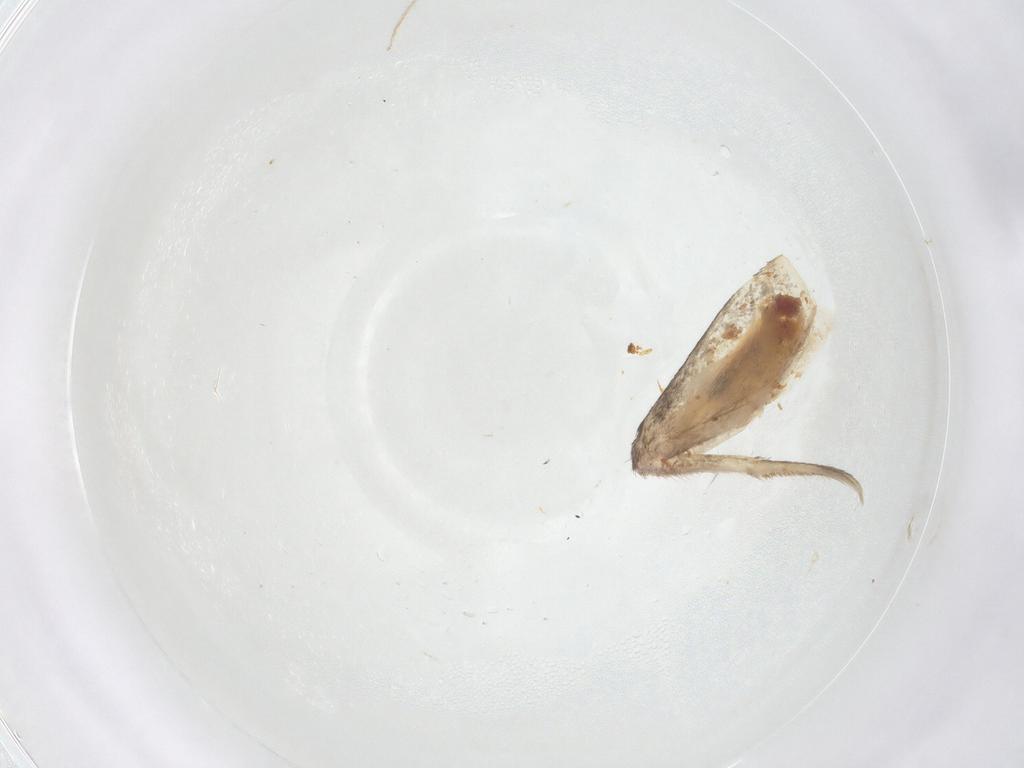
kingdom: Animalia
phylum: Arthropoda
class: Collembola
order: Entomobryomorpha
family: Entomobryidae
